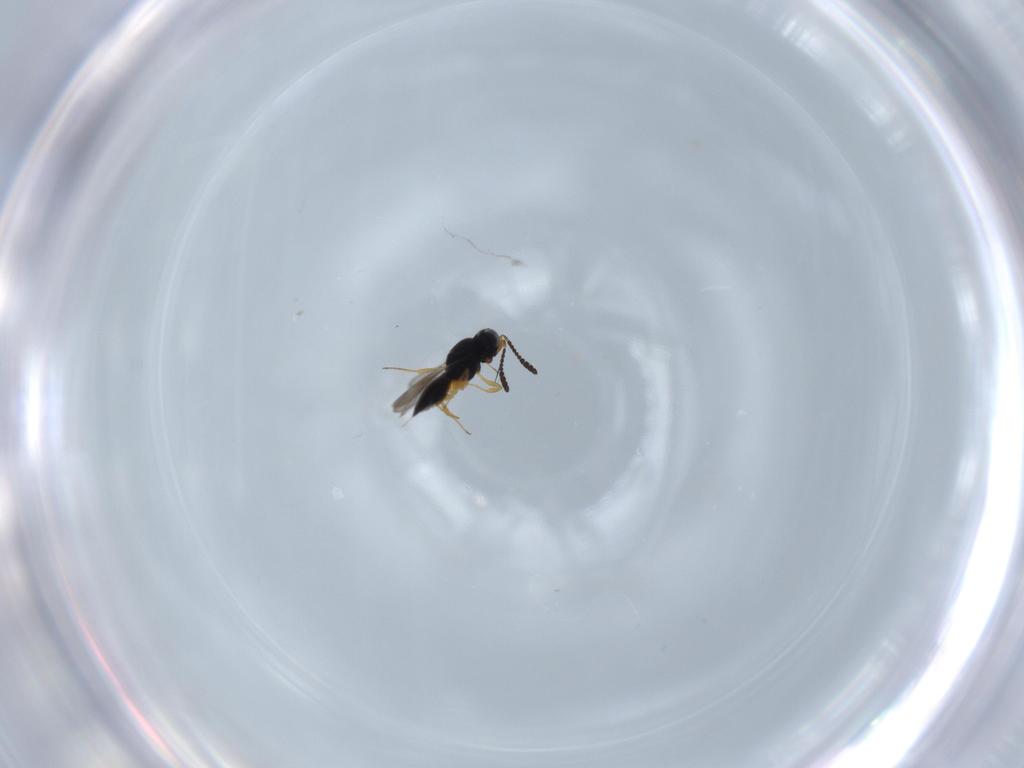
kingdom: Animalia
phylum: Arthropoda
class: Insecta
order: Hymenoptera
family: Scelionidae
